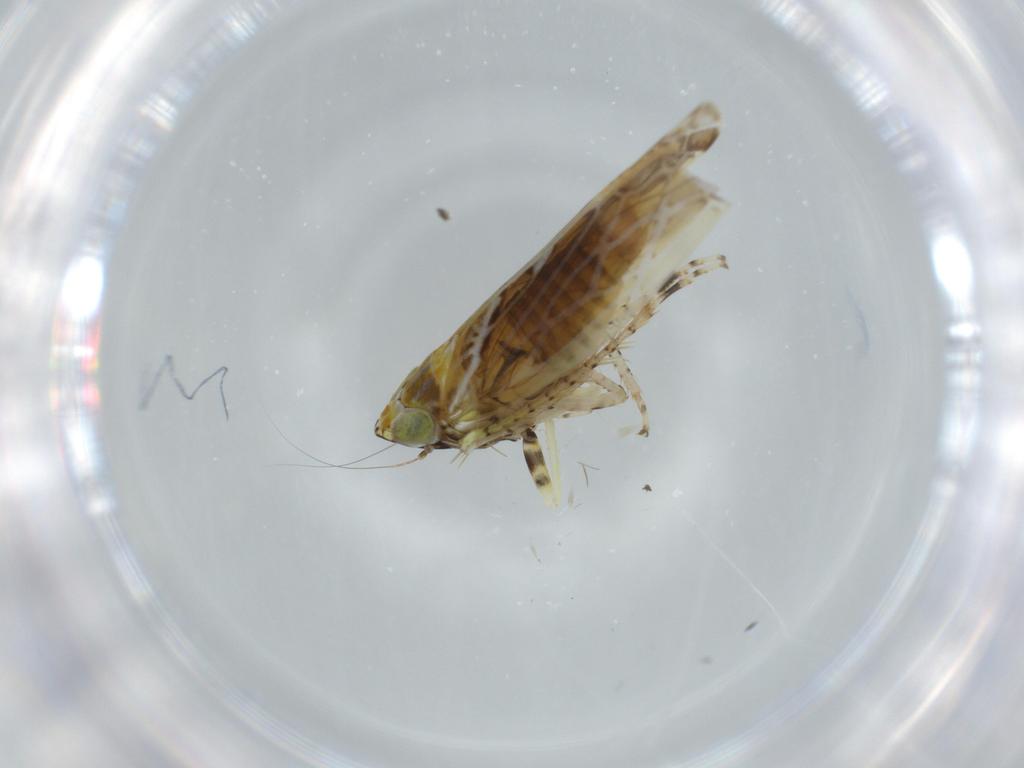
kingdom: Animalia
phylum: Arthropoda
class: Insecta
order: Hemiptera
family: Cicadellidae
